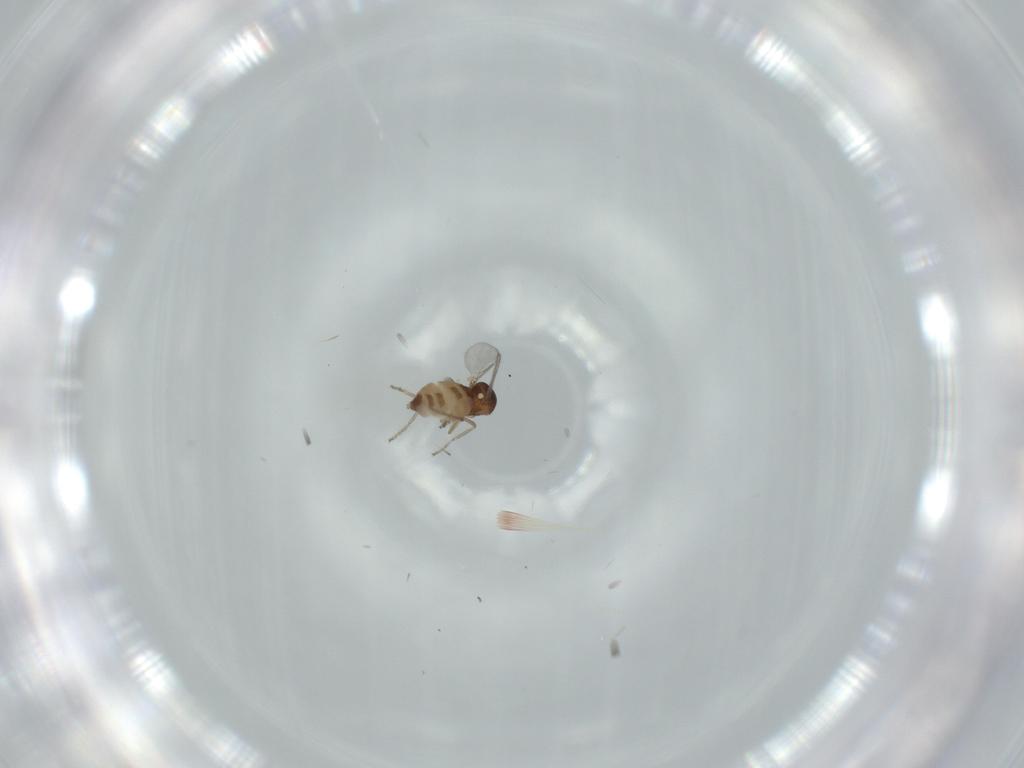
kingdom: Animalia
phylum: Arthropoda
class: Insecta
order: Diptera
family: Ceratopogonidae
